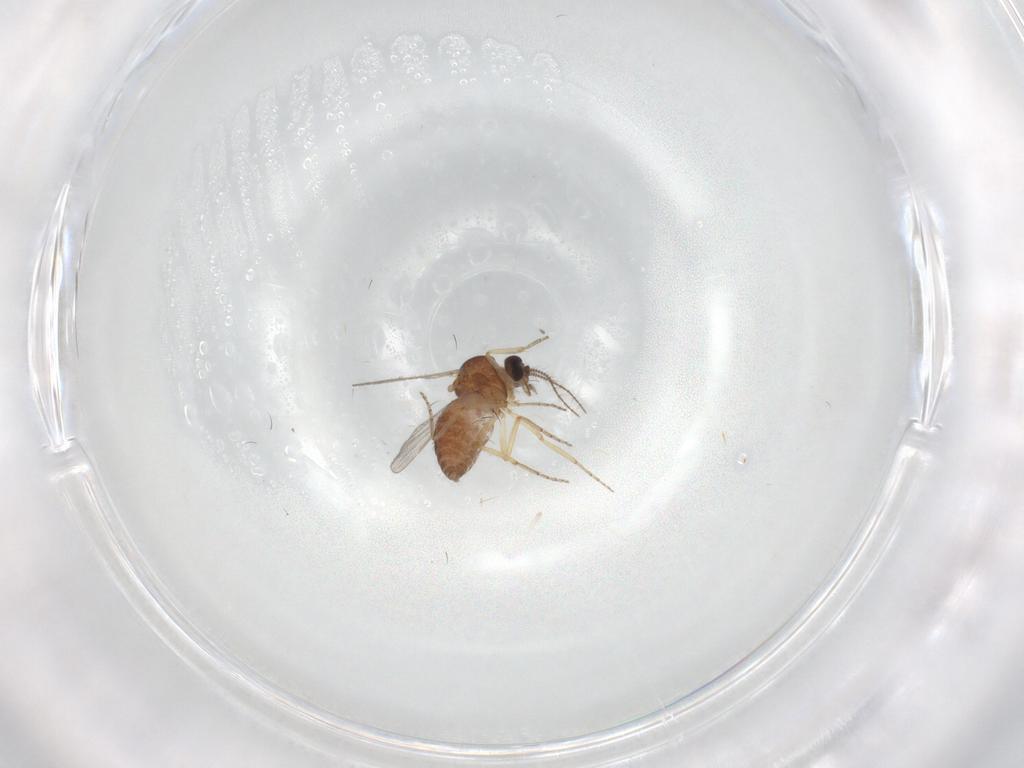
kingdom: Animalia
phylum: Arthropoda
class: Insecta
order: Diptera
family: Ceratopogonidae
